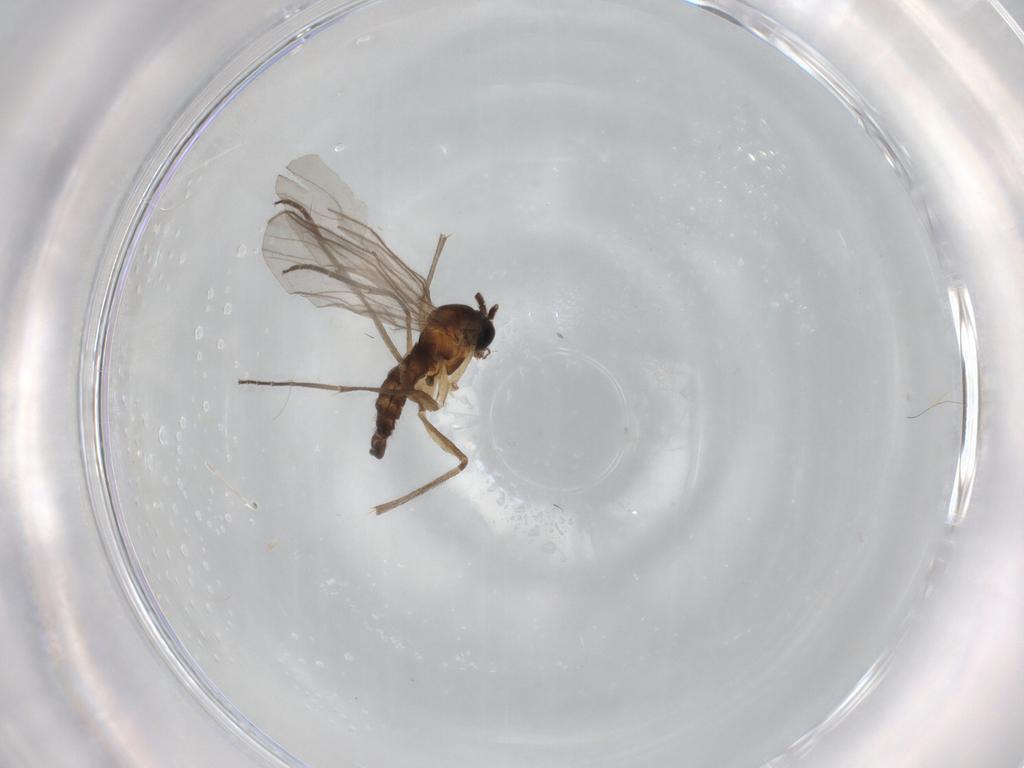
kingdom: Animalia
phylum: Arthropoda
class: Insecta
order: Diptera
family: Sciaridae
